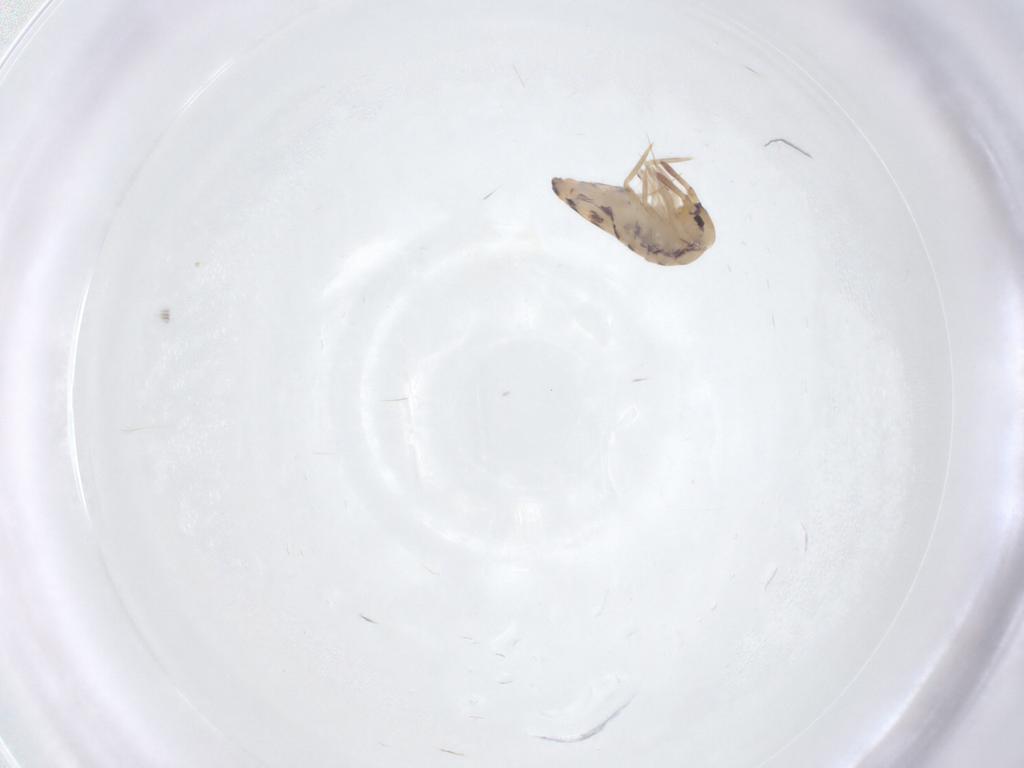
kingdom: Animalia
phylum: Arthropoda
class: Collembola
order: Entomobryomorpha
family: Entomobryidae
